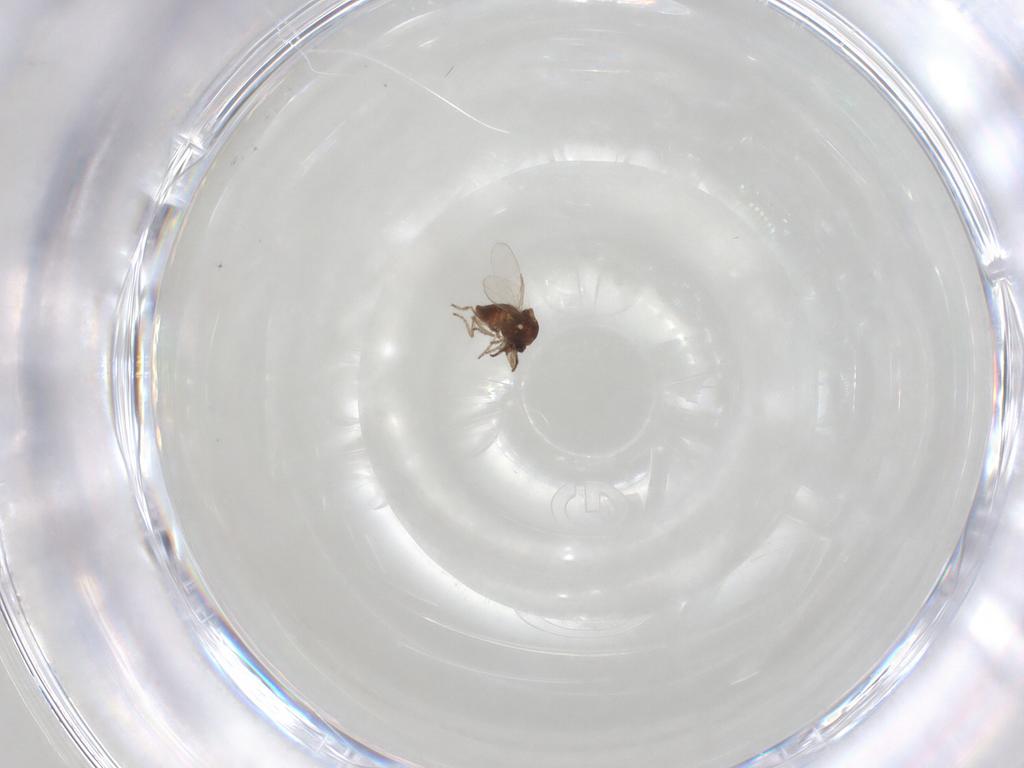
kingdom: Animalia
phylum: Arthropoda
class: Insecta
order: Diptera
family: Ceratopogonidae
